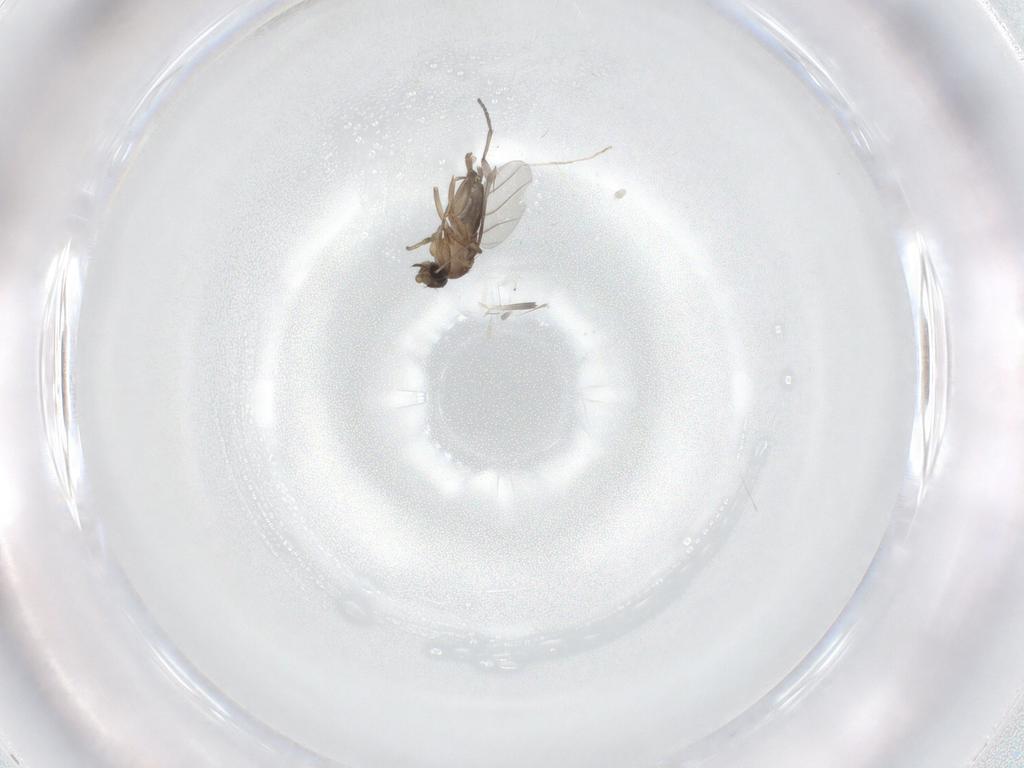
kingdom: Animalia
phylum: Arthropoda
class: Insecta
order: Diptera
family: Sciaridae
